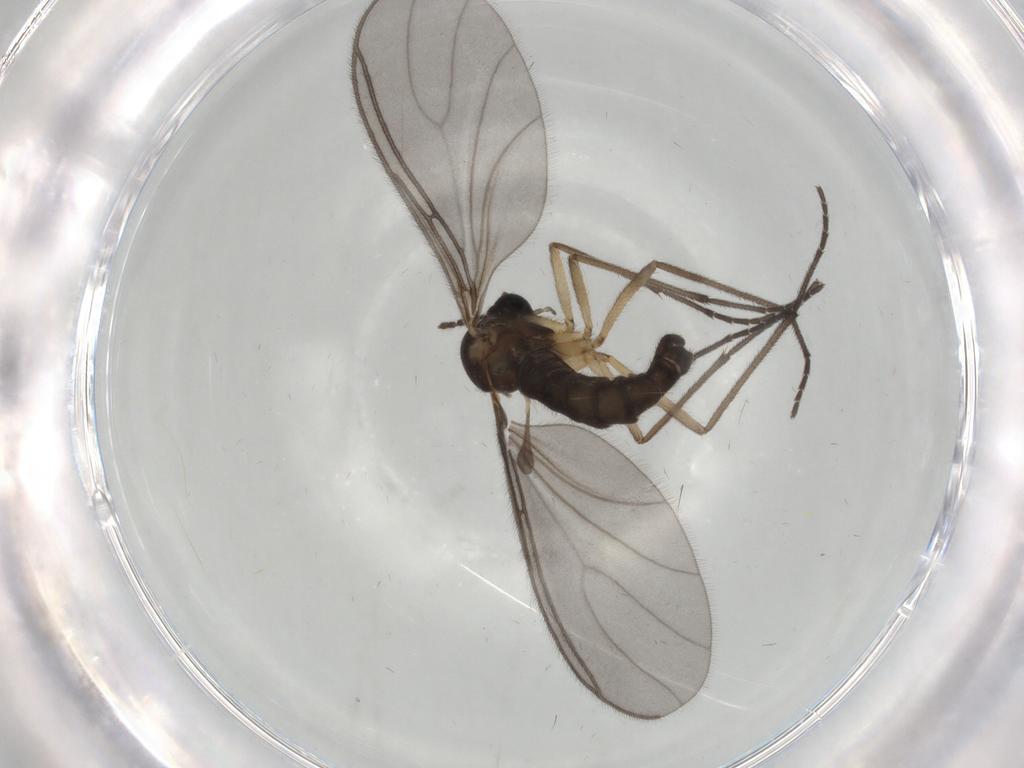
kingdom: Animalia
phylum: Arthropoda
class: Insecta
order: Diptera
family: Sciaridae
